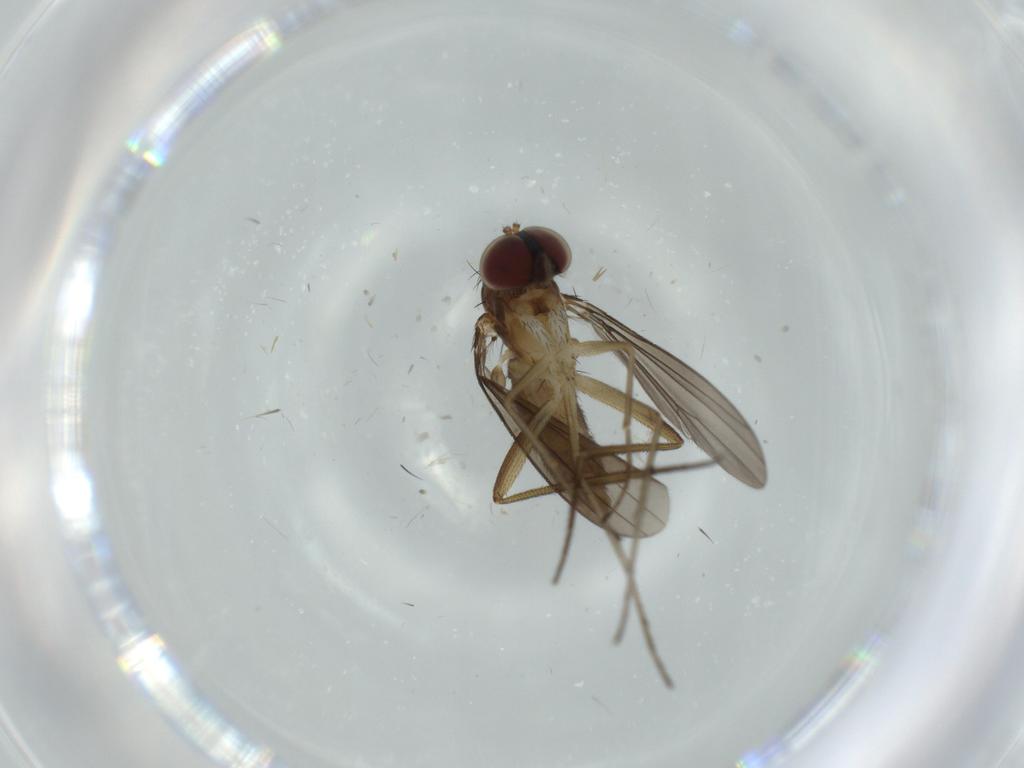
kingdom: Animalia
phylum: Arthropoda
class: Insecta
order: Diptera
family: Dolichopodidae
